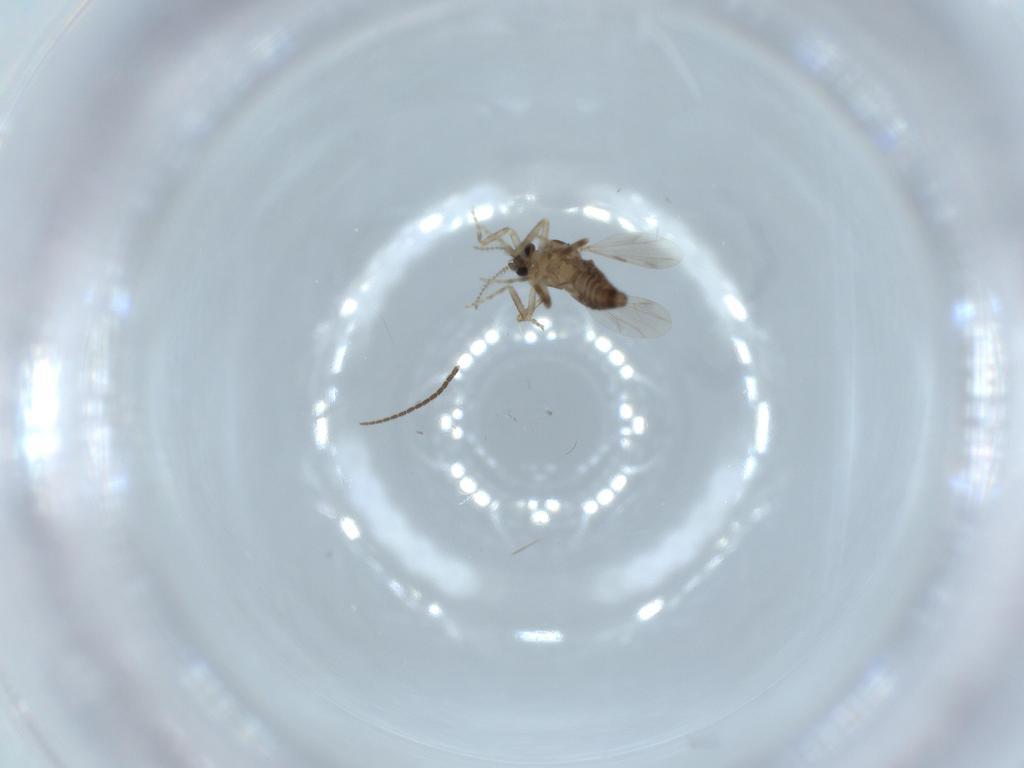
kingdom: Animalia
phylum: Arthropoda
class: Insecta
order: Diptera
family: Ceratopogonidae
